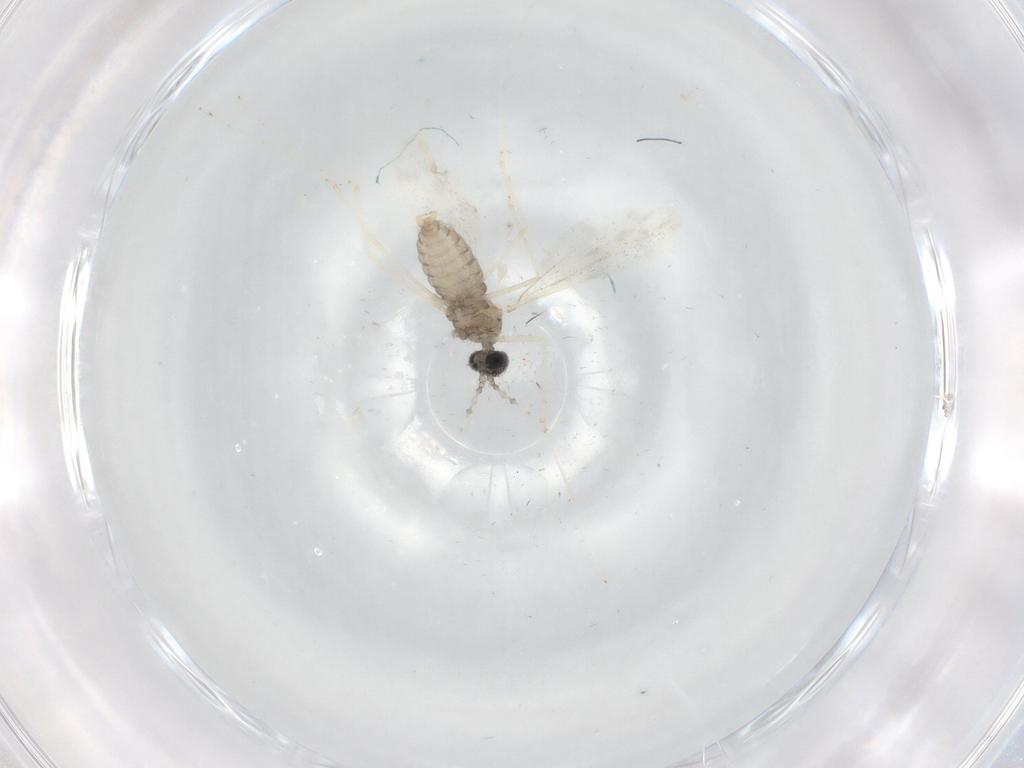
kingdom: Animalia
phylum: Arthropoda
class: Insecta
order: Diptera
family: Cecidomyiidae
